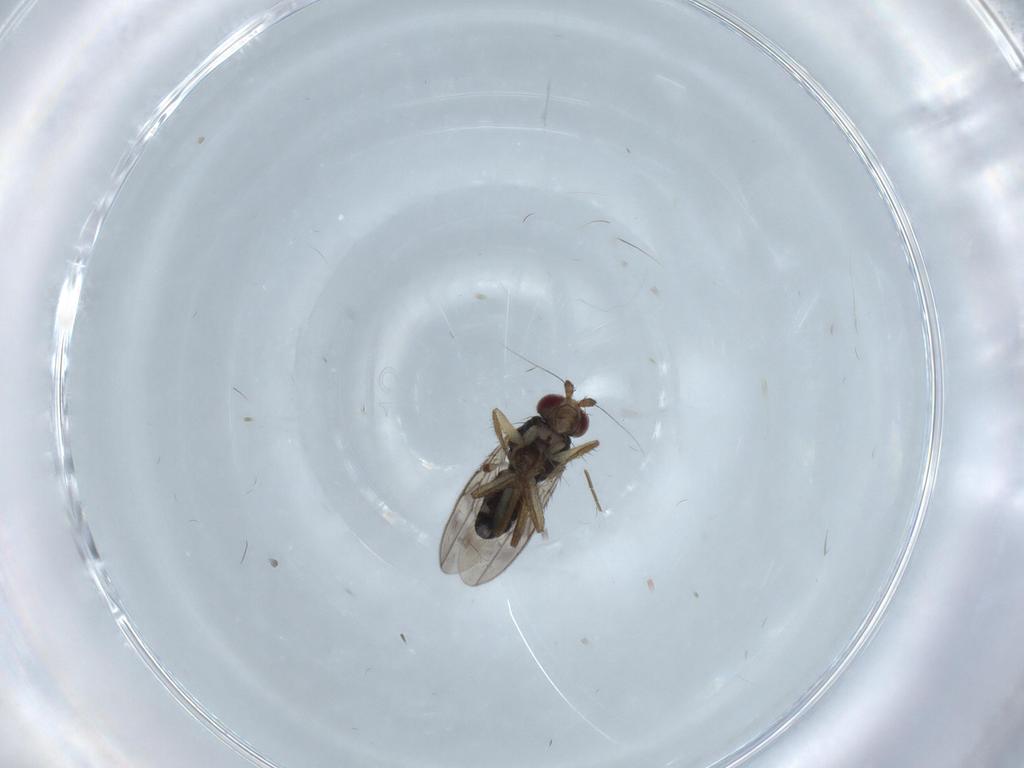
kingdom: Animalia
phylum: Arthropoda
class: Insecta
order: Diptera
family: Sphaeroceridae
